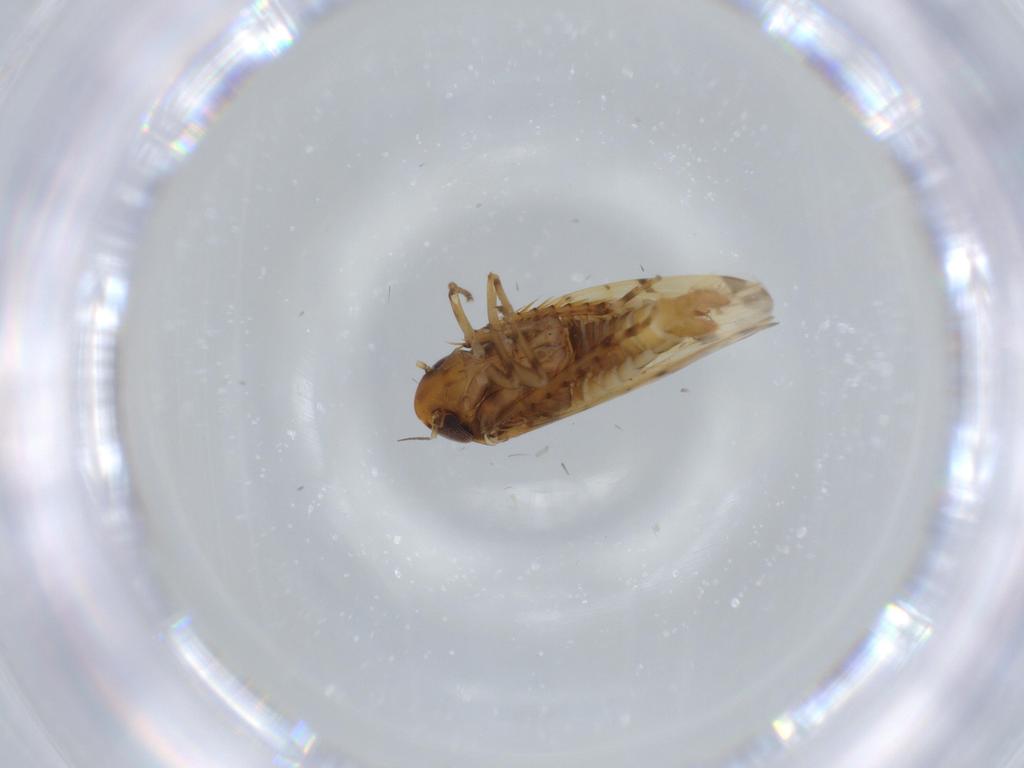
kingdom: Animalia
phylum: Arthropoda
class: Insecta
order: Hemiptera
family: Cicadellidae
